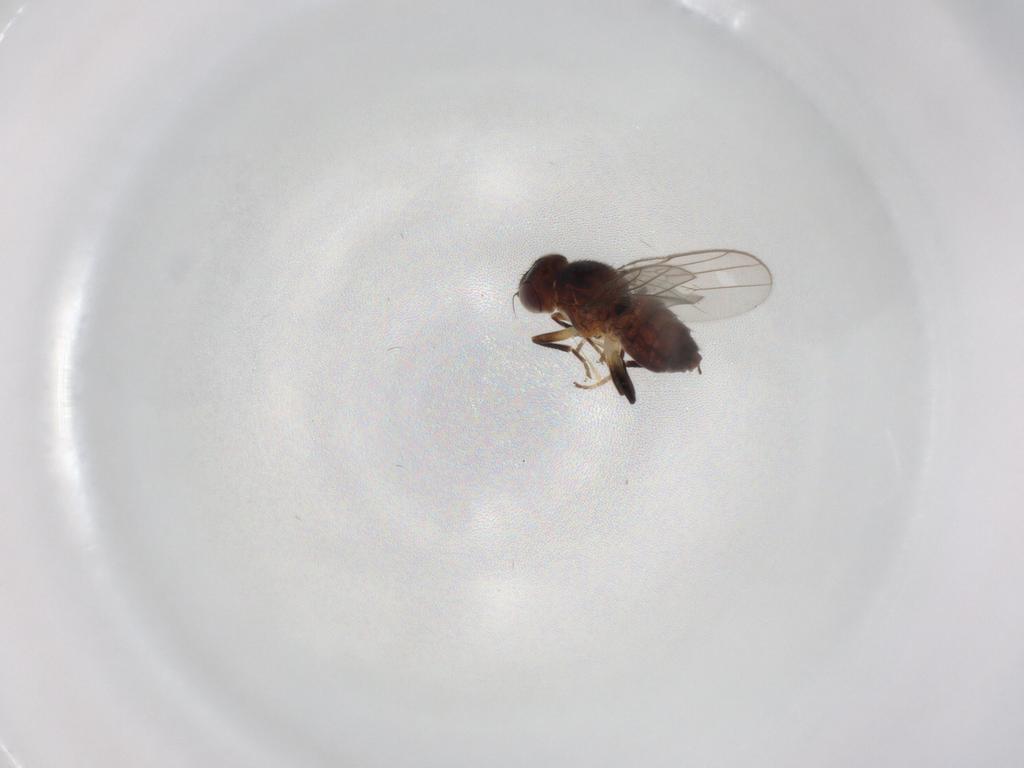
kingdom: Animalia
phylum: Arthropoda
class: Insecta
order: Diptera
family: Chloropidae
